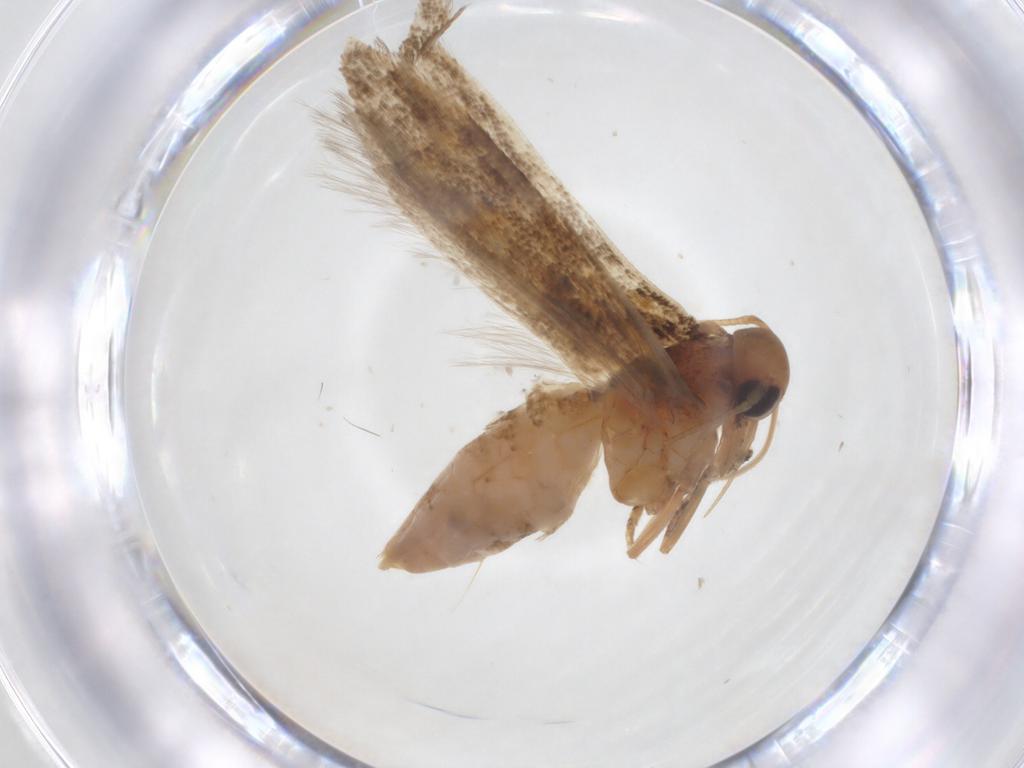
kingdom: Animalia
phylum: Arthropoda
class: Insecta
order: Lepidoptera
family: Gelechiidae
